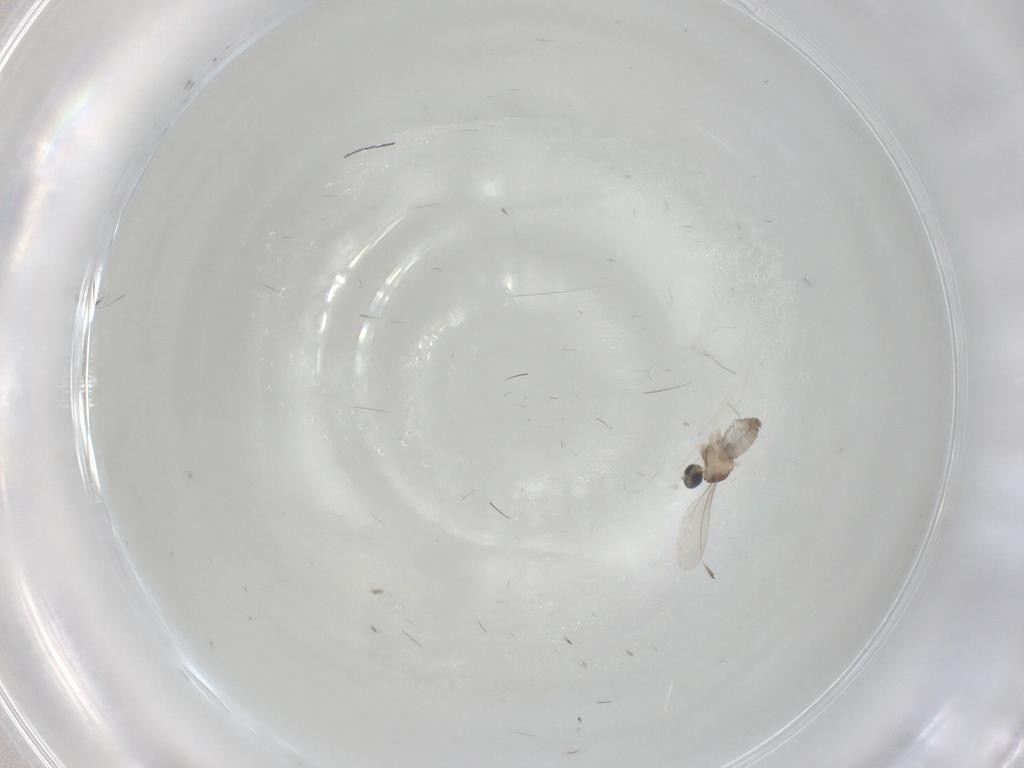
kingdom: Animalia
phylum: Arthropoda
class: Insecta
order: Diptera
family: Cecidomyiidae
